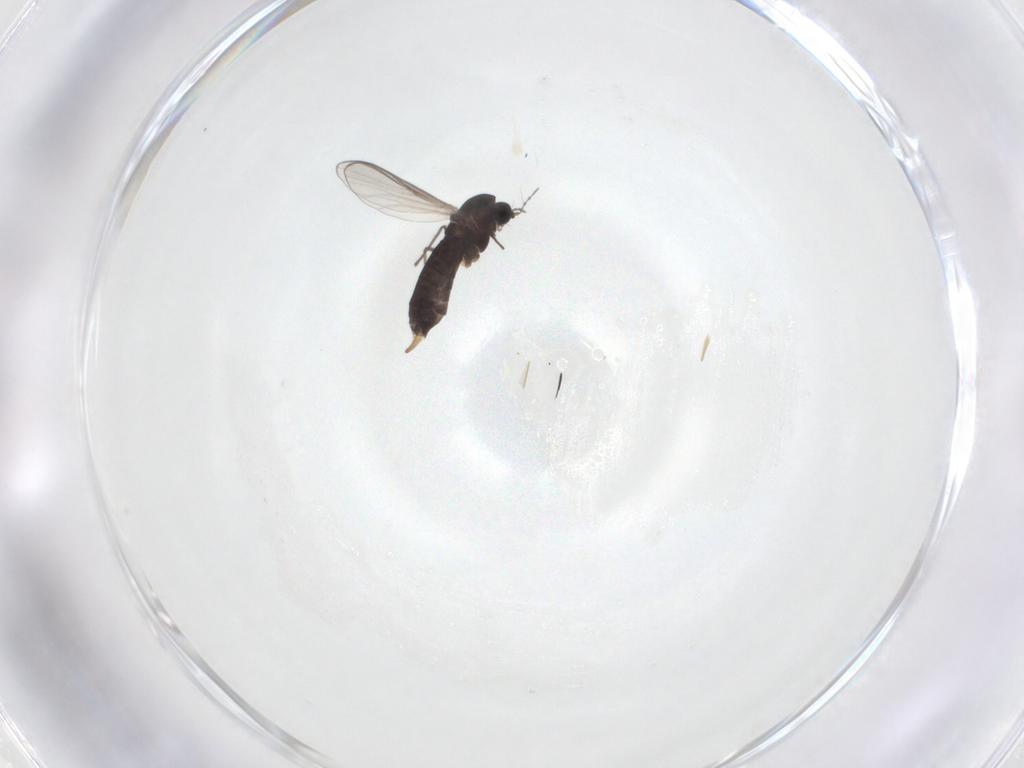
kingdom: Animalia
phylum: Arthropoda
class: Insecta
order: Diptera
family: Chironomidae
